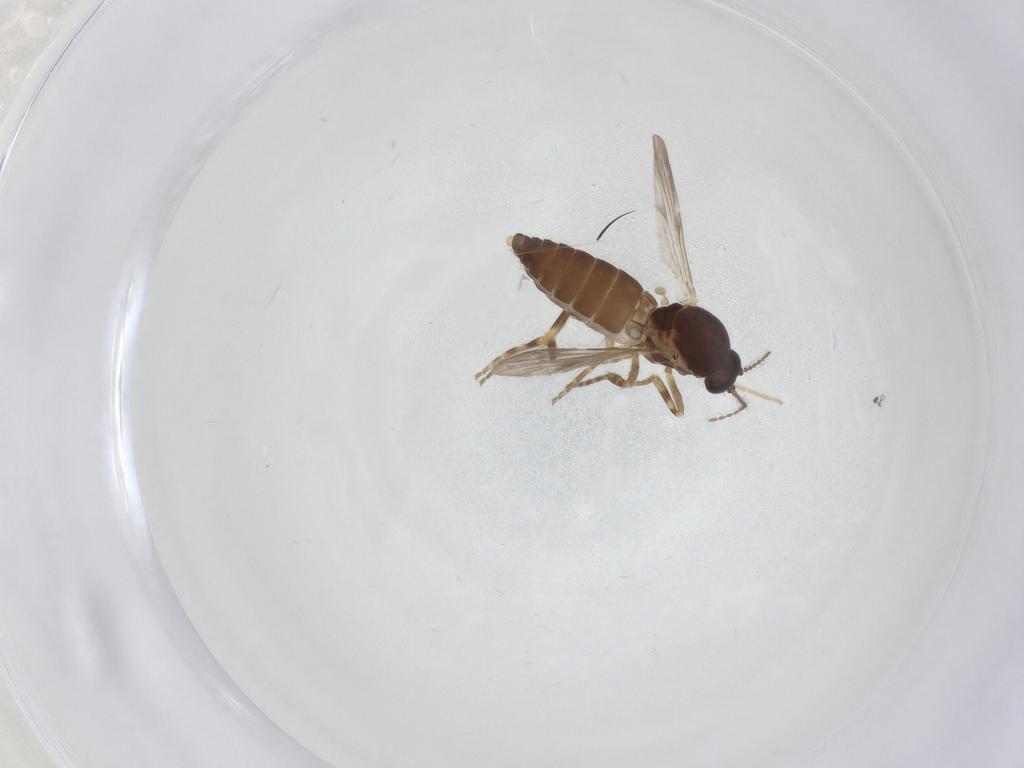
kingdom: Animalia
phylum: Arthropoda
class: Insecta
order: Diptera
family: Ceratopogonidae
